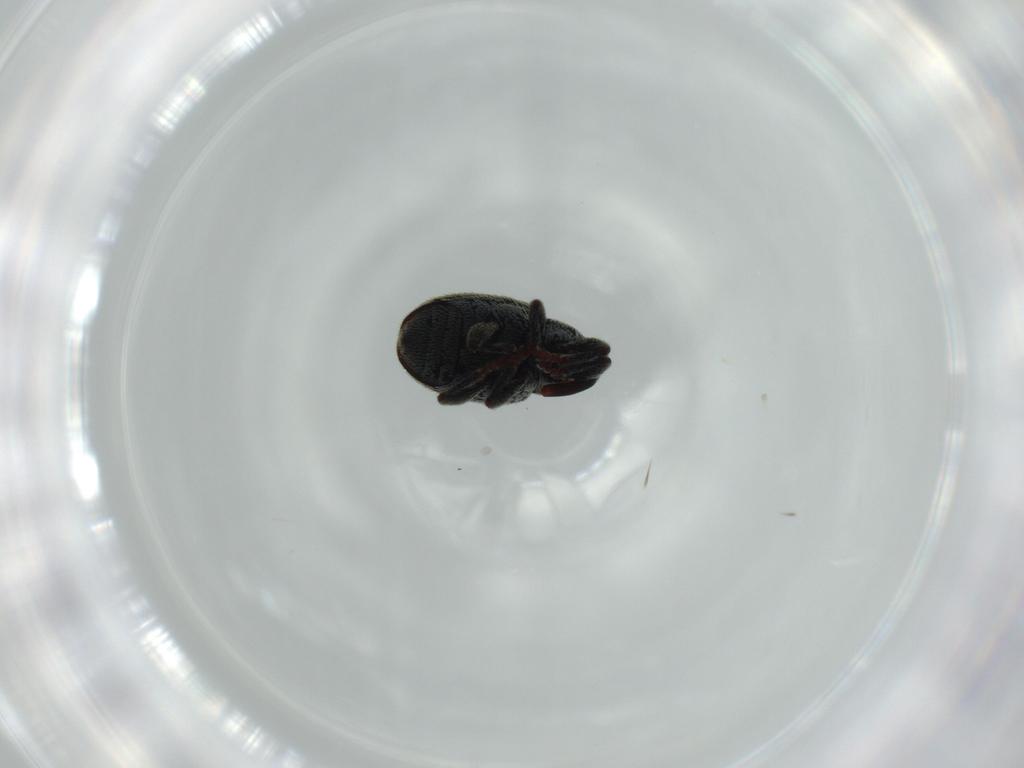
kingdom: Animalia
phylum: Arthropoda
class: Insecta
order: Coleoptera
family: Curculionidae
